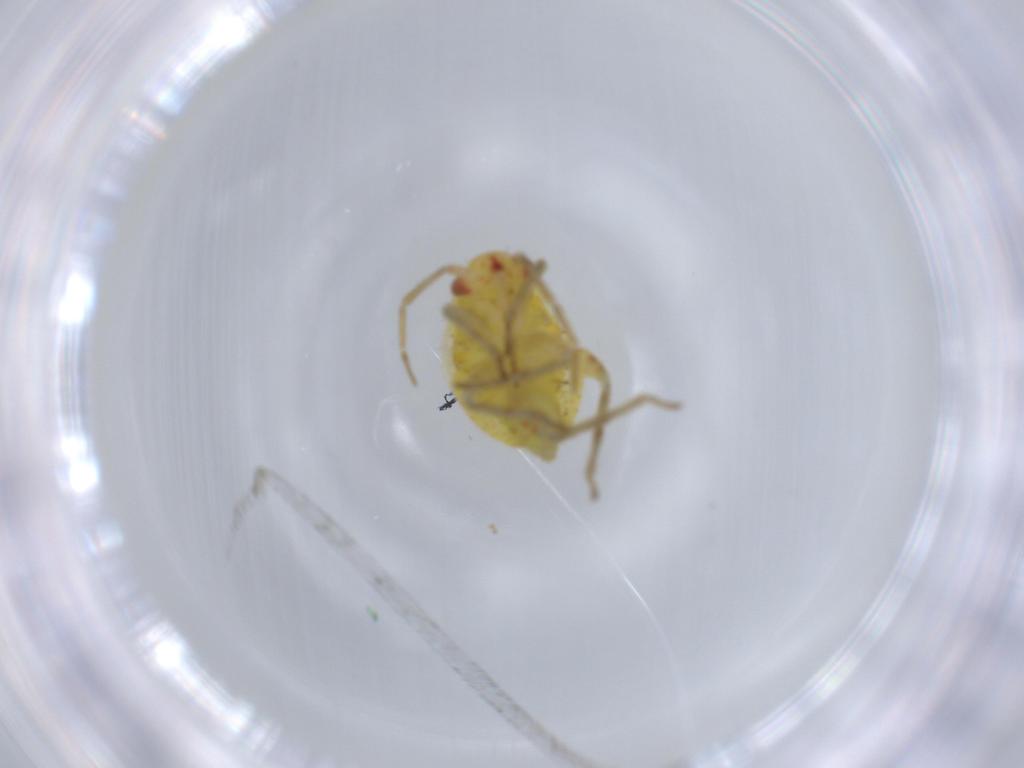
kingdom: Animalia
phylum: Arthropoda
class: Insecta
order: Hemiptera
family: Miridae
